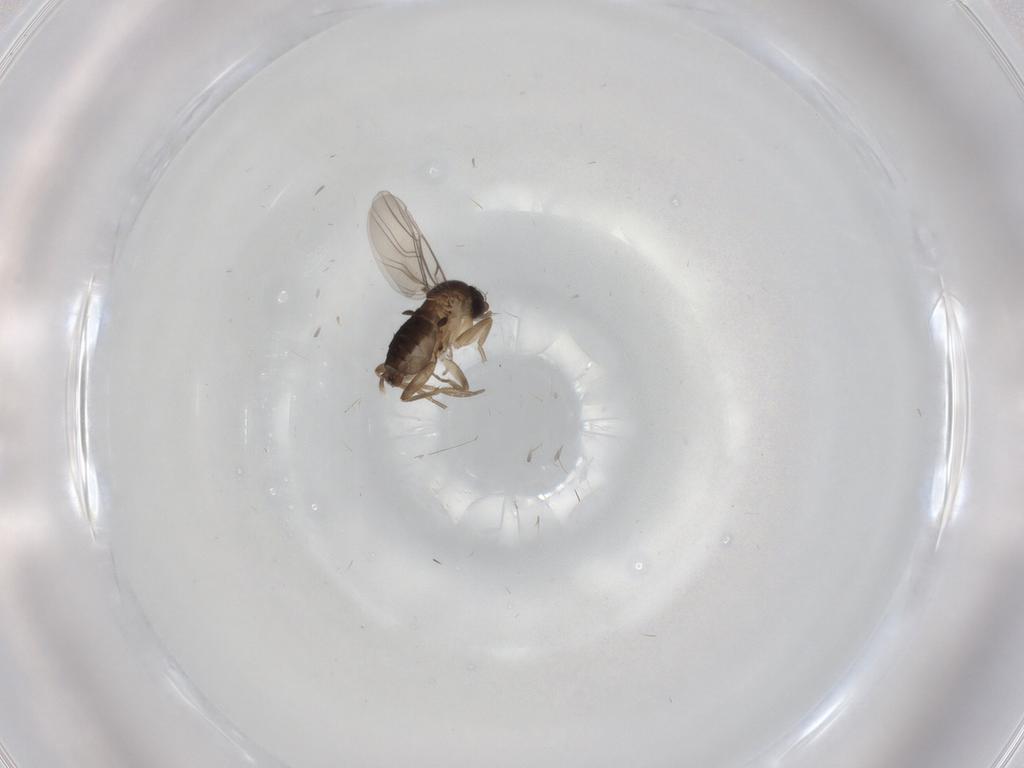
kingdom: Animalia
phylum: Arthropoda
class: Insecta
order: Diptera
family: Phoridae
